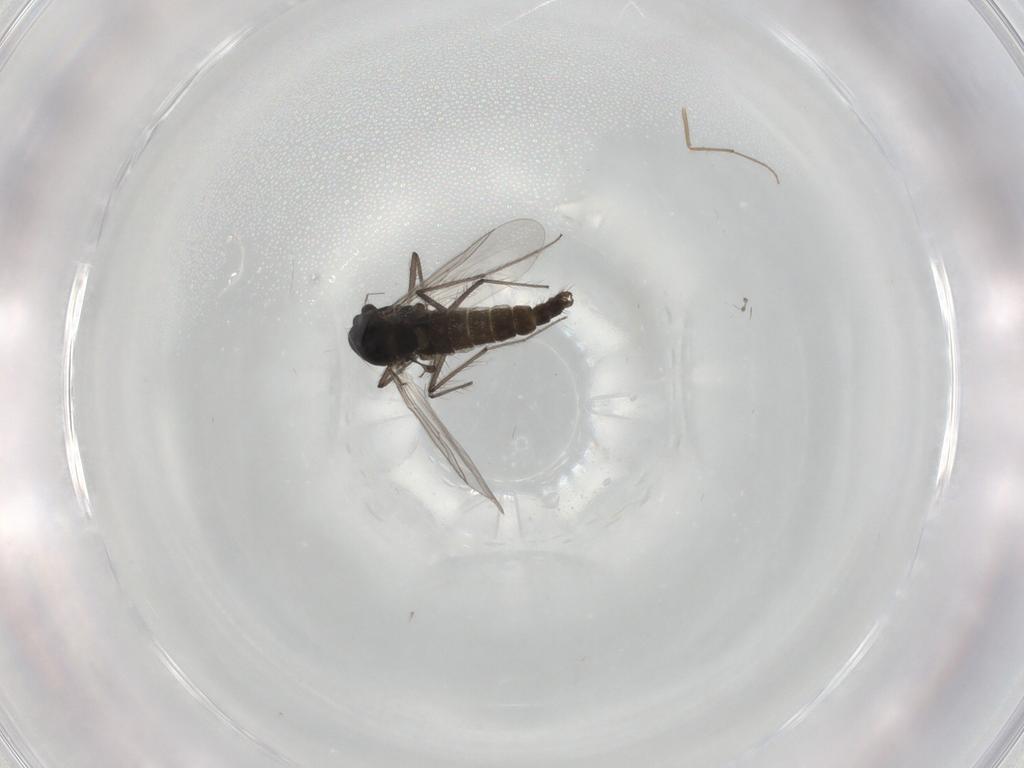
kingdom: Animalia
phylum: Arthropoda
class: Insecta
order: Diptera
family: Chironomidae
